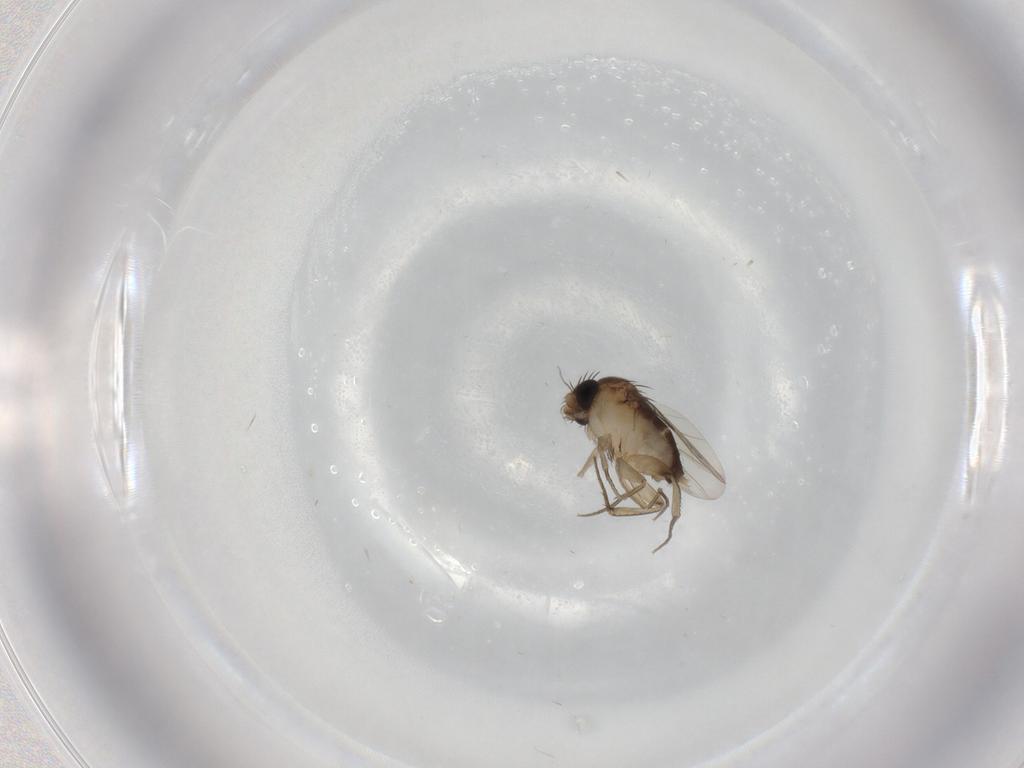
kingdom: Animalia
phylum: Arthropoda
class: Insecta
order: Diptera
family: Phoridae
